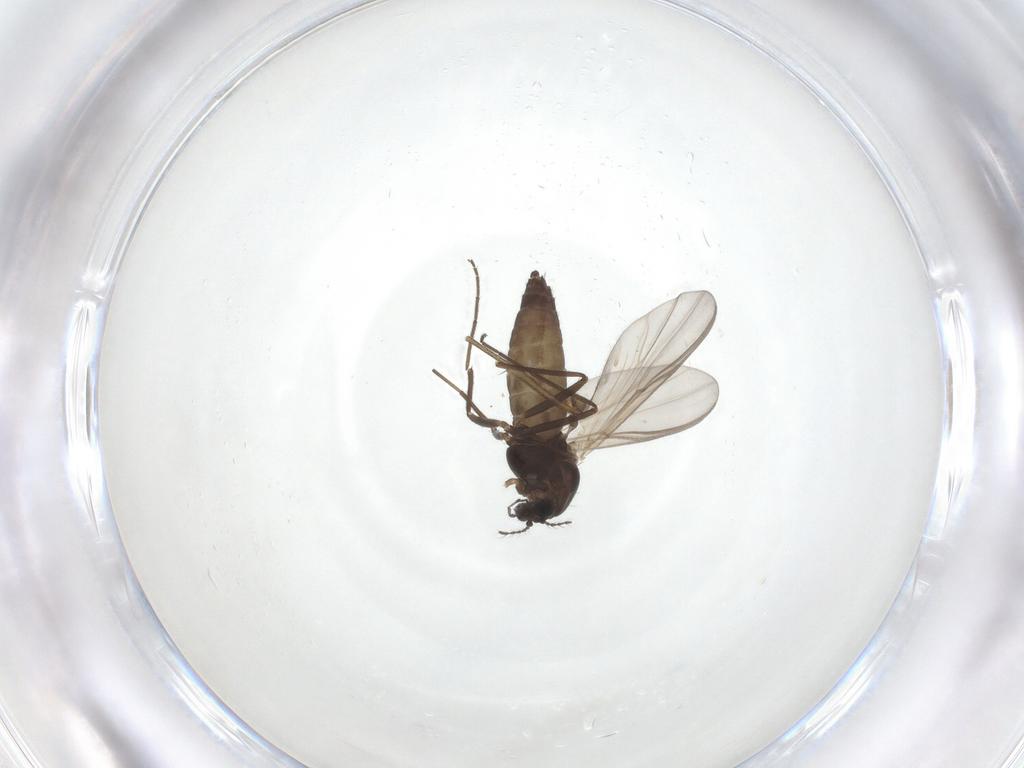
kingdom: Animalia
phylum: Arthropoda
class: Insecta
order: Diptera
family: Chironomidae
